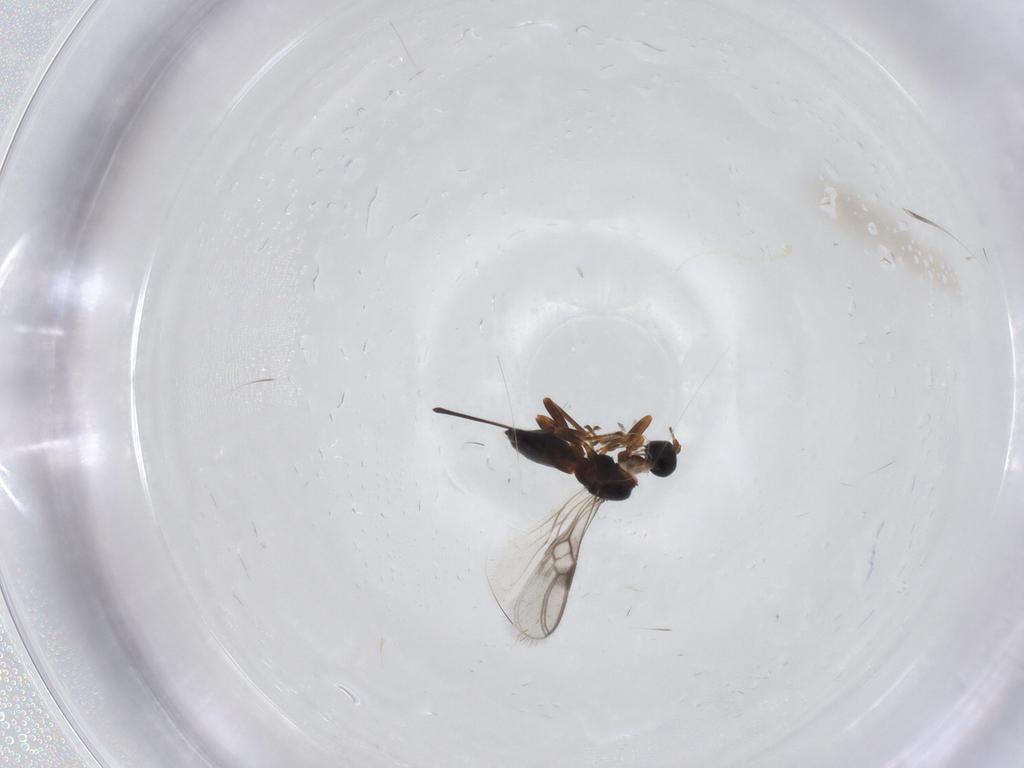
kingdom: Animalia
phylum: Arthropoda
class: Insecta
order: Hymenoptera
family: Braconidae
